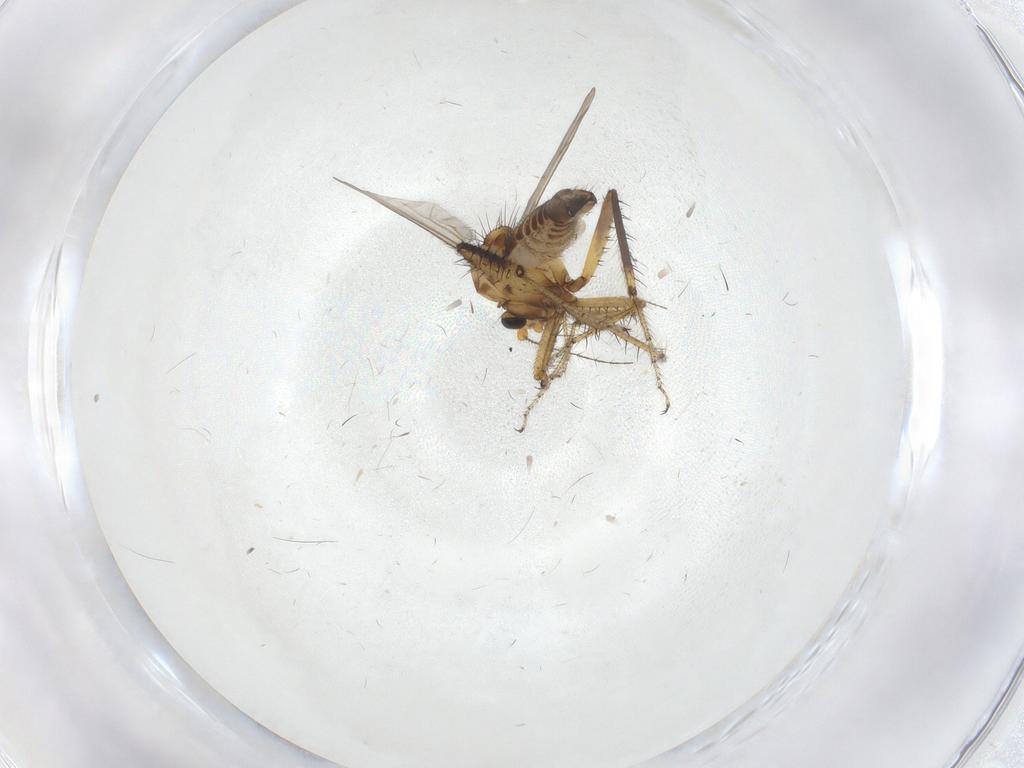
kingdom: Animalia
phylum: Arthropoda
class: Insecta
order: Diptera
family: Ceratopogonidae
